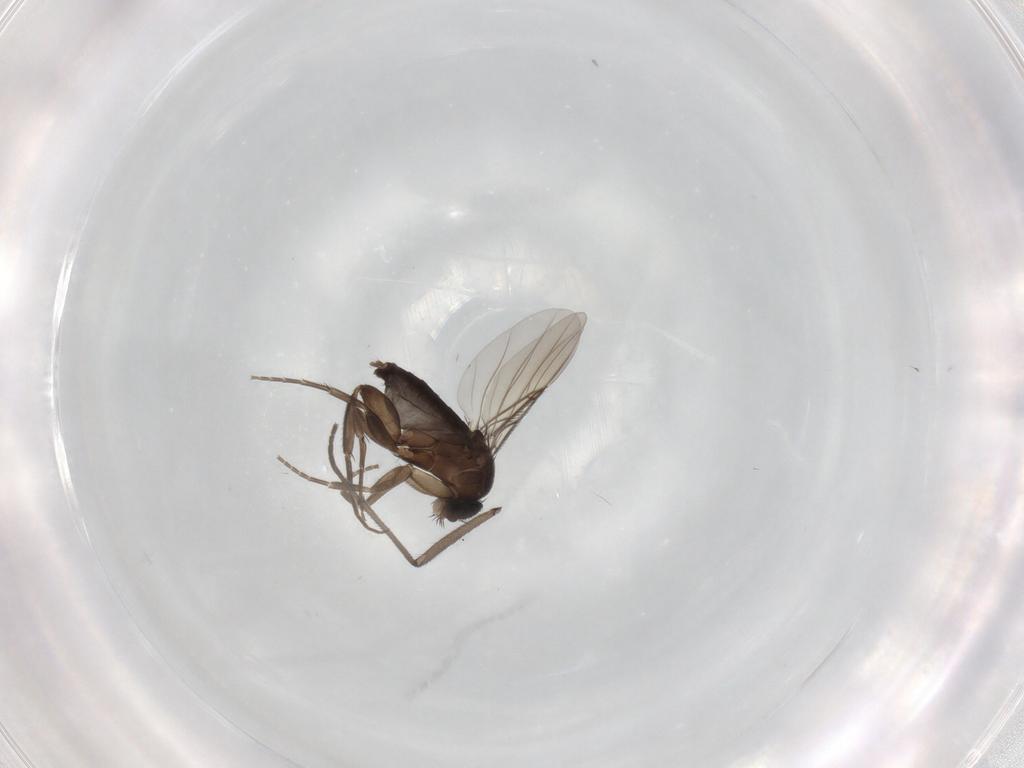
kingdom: Animalia
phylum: Arthropoda
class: Insecta
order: Diptera
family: Phoridae
